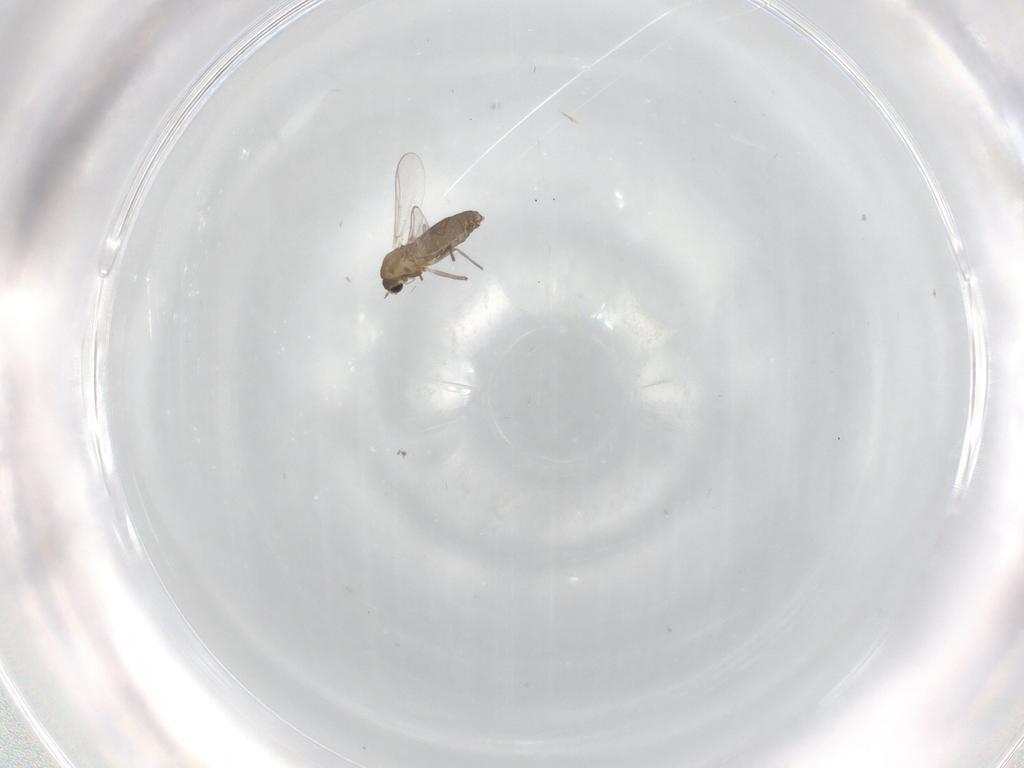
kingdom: Animalia
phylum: Arthropoda
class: Insecta
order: Diptera
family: Chironomidae
